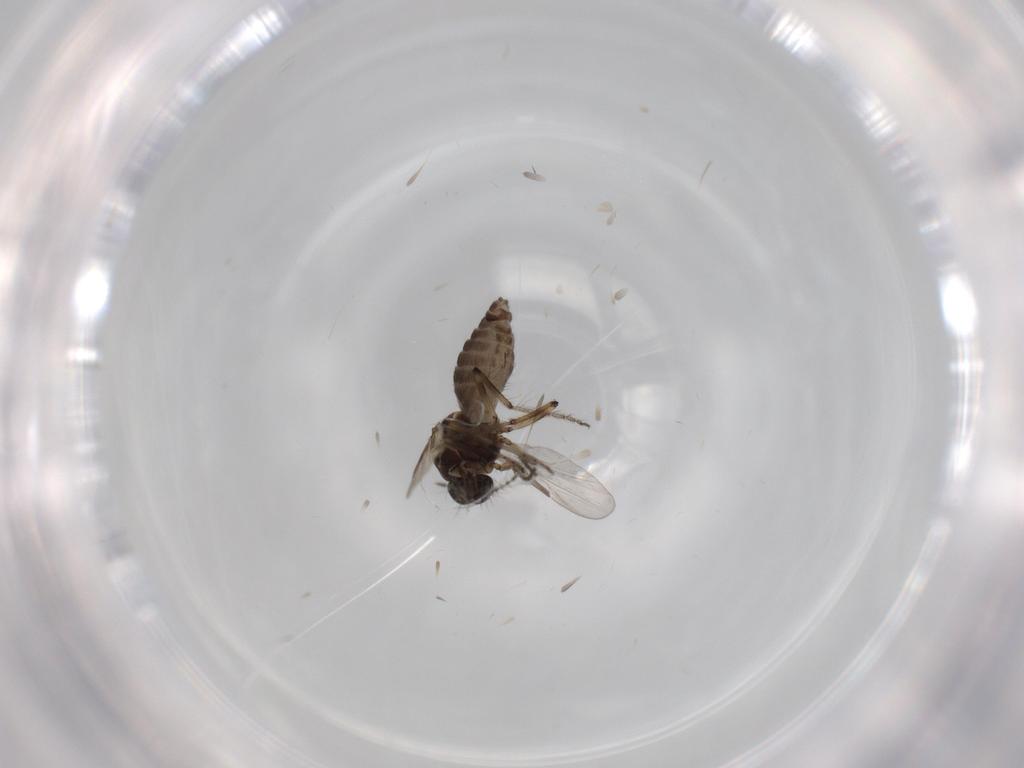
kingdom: Animalia
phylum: Arthropoda
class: Insecta
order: Diptera
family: Ceratopogonidae
